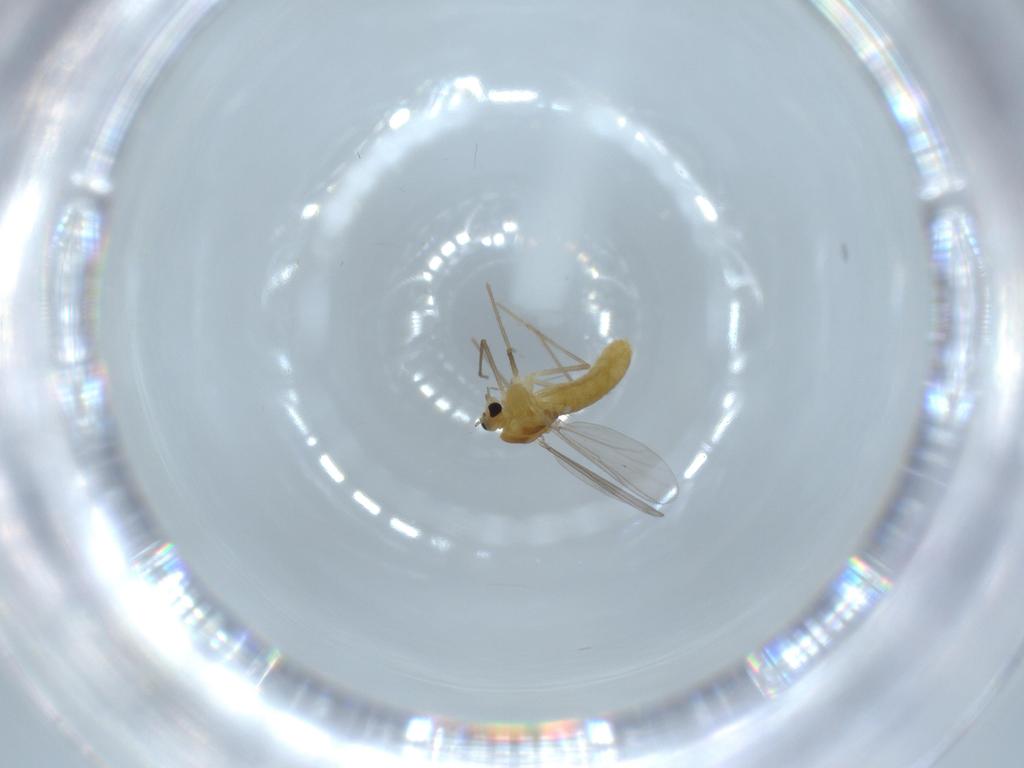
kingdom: Animalia
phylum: Arthropoda
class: Insecta
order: Diptera
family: Chironomidae
